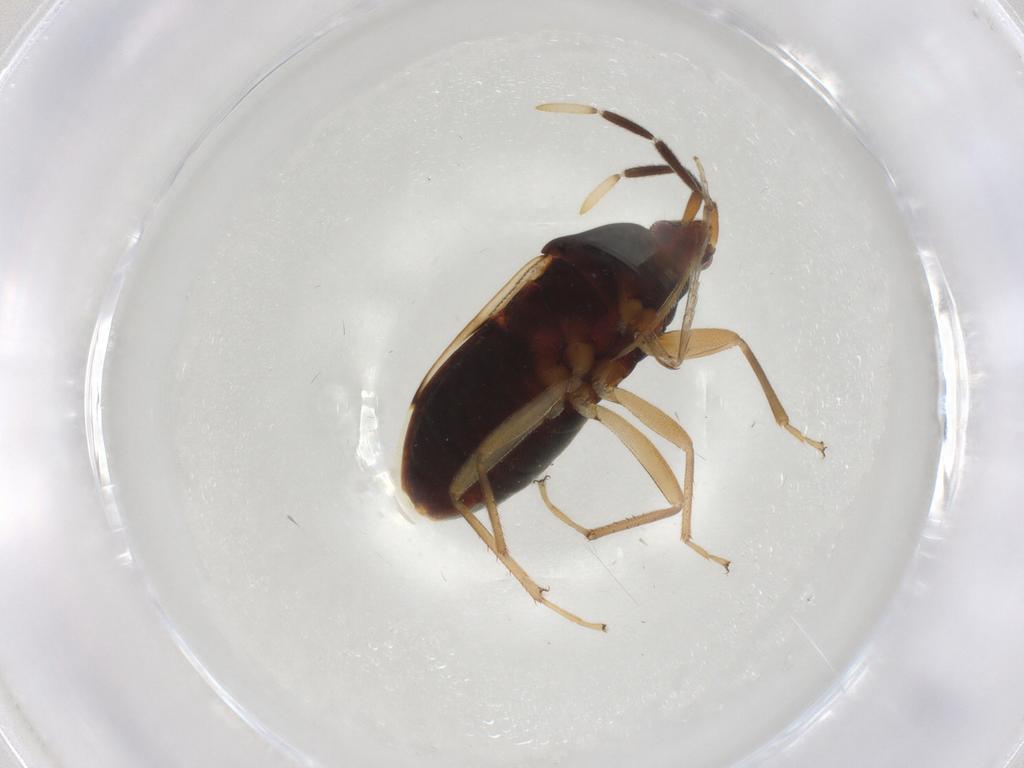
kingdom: Animalia
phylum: Arthropoda
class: Insecta
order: Hemiptera
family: Rhyparochromidae
